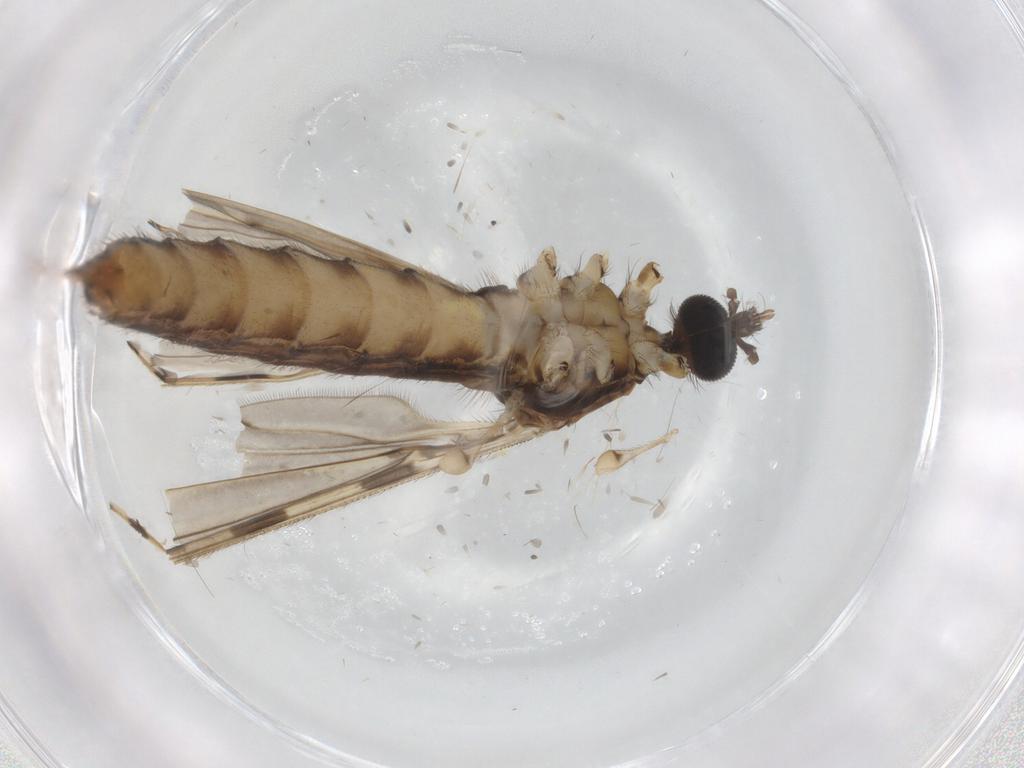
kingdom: Animalia
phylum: Arthropoda
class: Insecta
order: Diptera
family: Limoniidae
